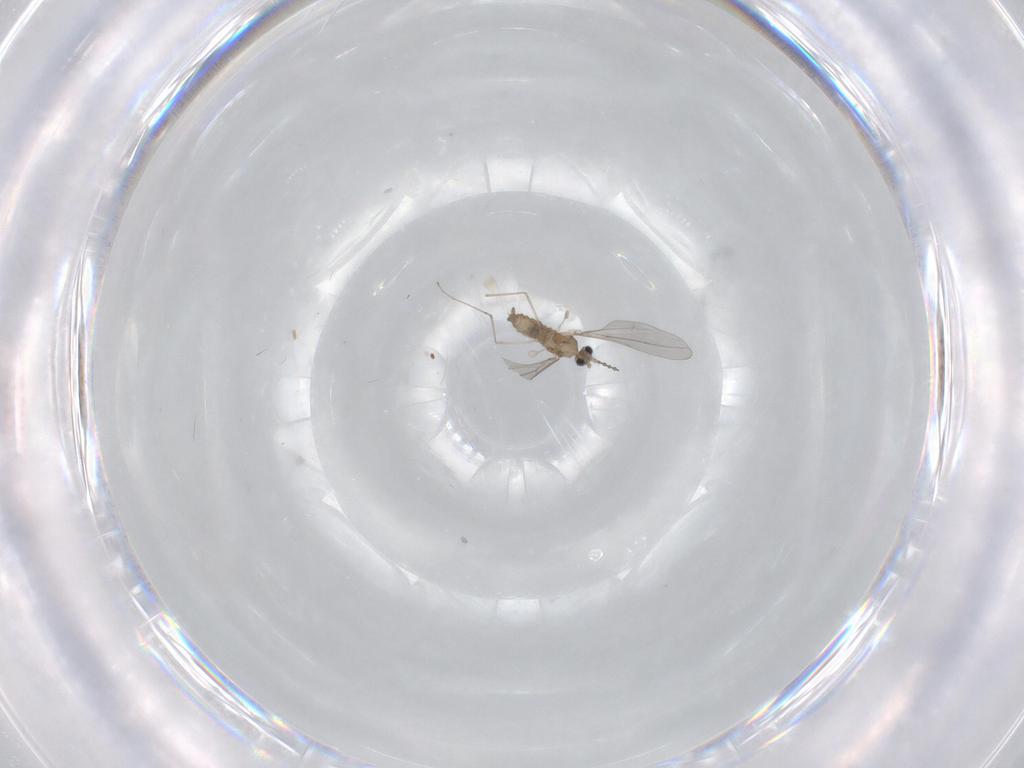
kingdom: Animalia
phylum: Arthropoda
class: Insecta
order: Diptera
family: Cecidomyiidae
